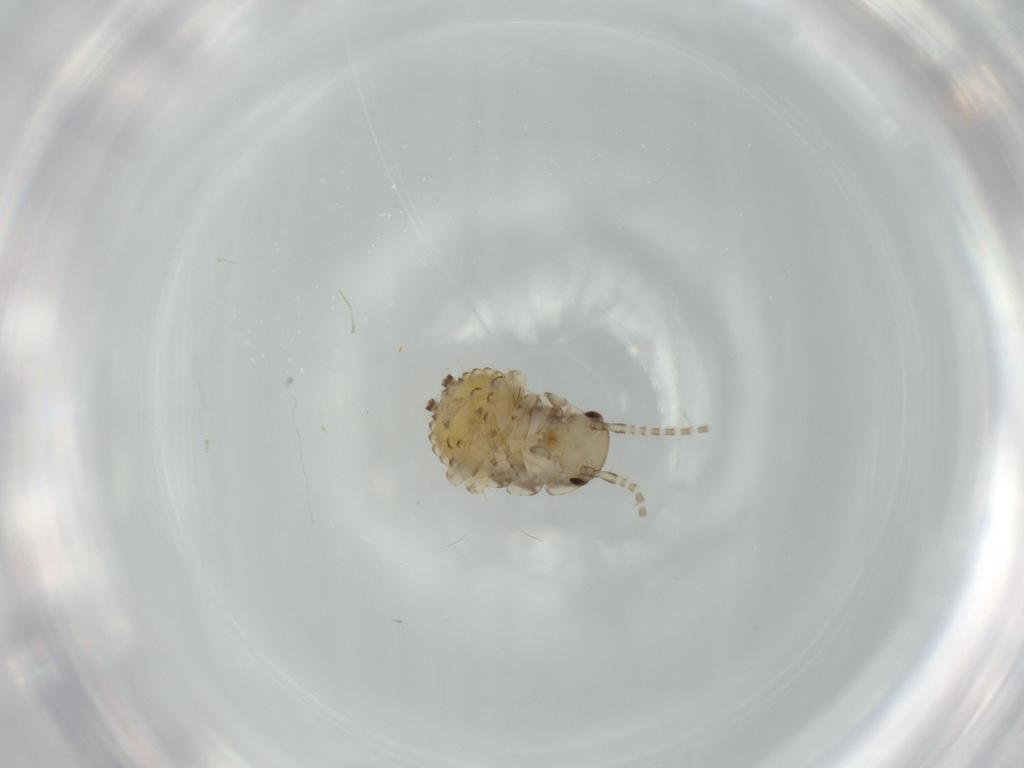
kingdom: Animalia
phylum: Arthropoda
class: Insecta
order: Blattodea
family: Ectobiidae
